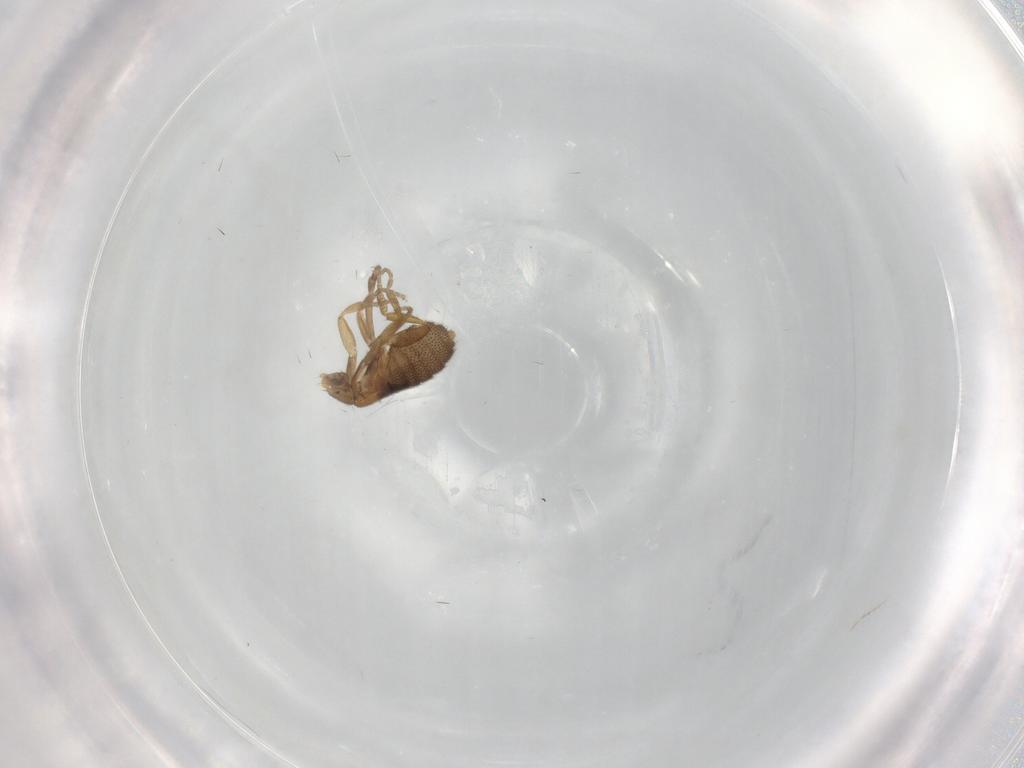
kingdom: Animalia
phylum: Arthropoda
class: Insecta
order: Diptera
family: Phoridae
